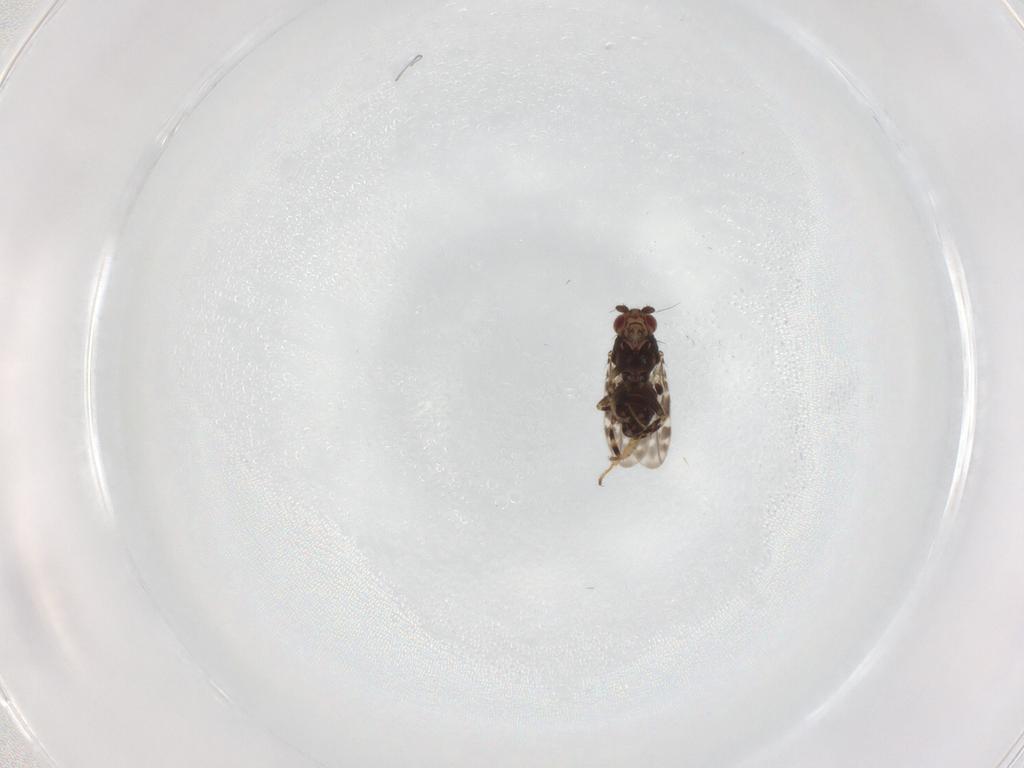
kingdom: Animalia
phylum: Arthropoda
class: Insecta
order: Diptera
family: Sphaeroceridae
